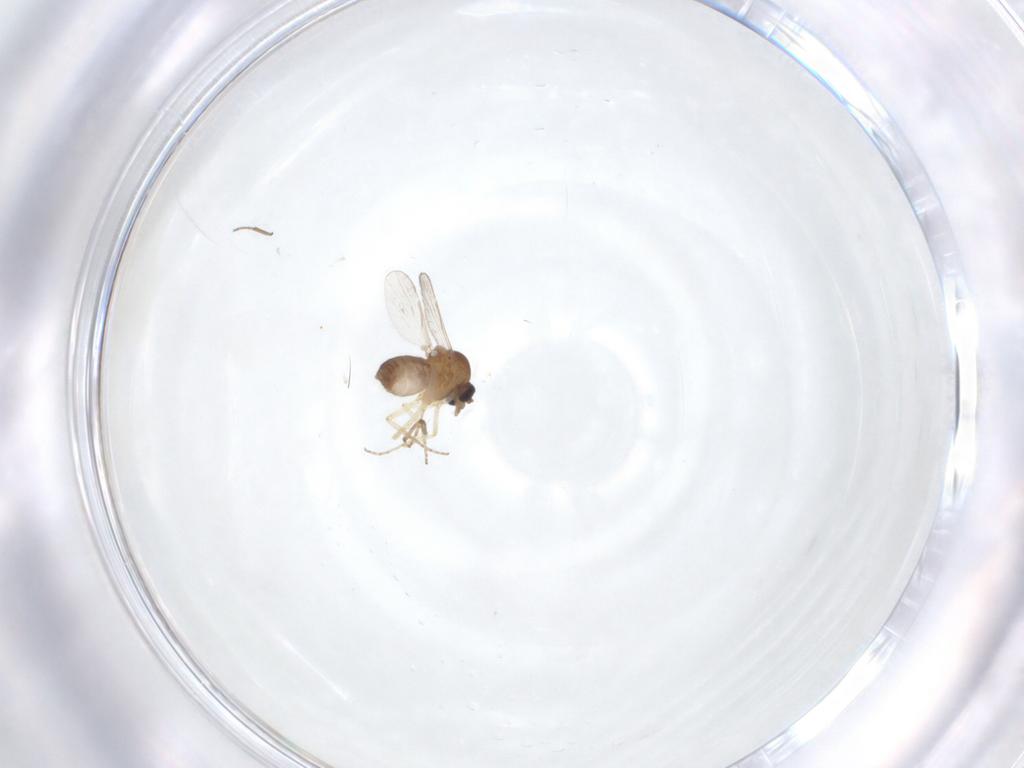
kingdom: Animalia
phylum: Arthropoda
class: Insecta
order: Diptera
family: Ceratopogonidae
